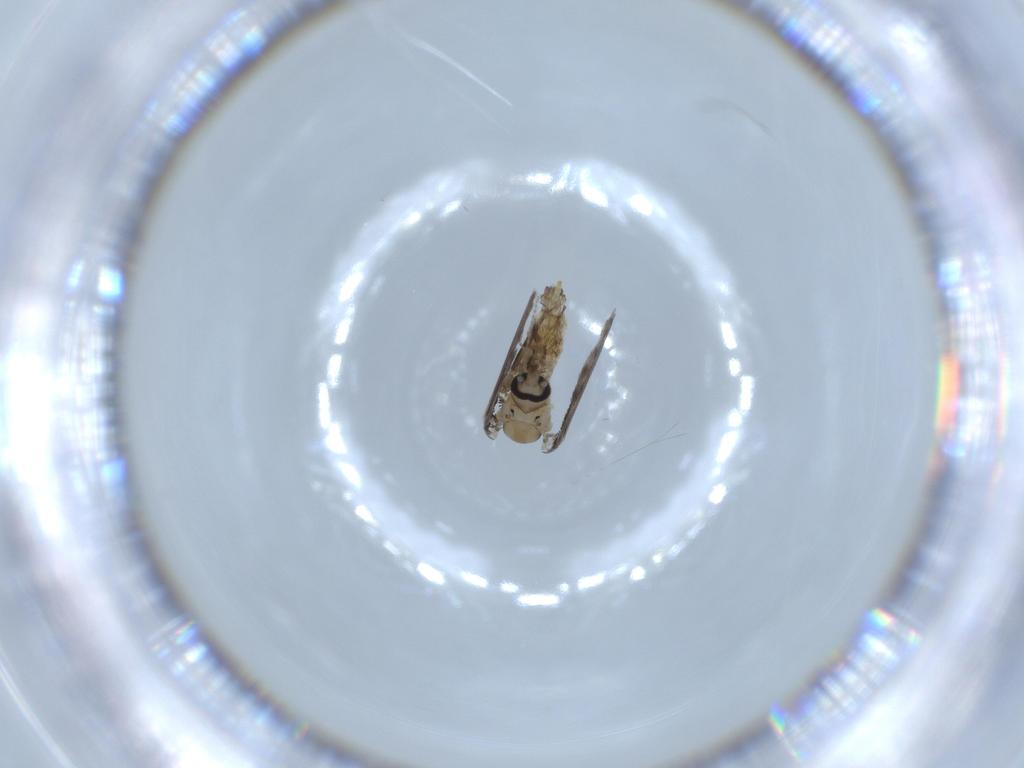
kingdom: Animalia
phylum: Arthropoda
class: Insecta
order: Diptera
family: Psychodidae
